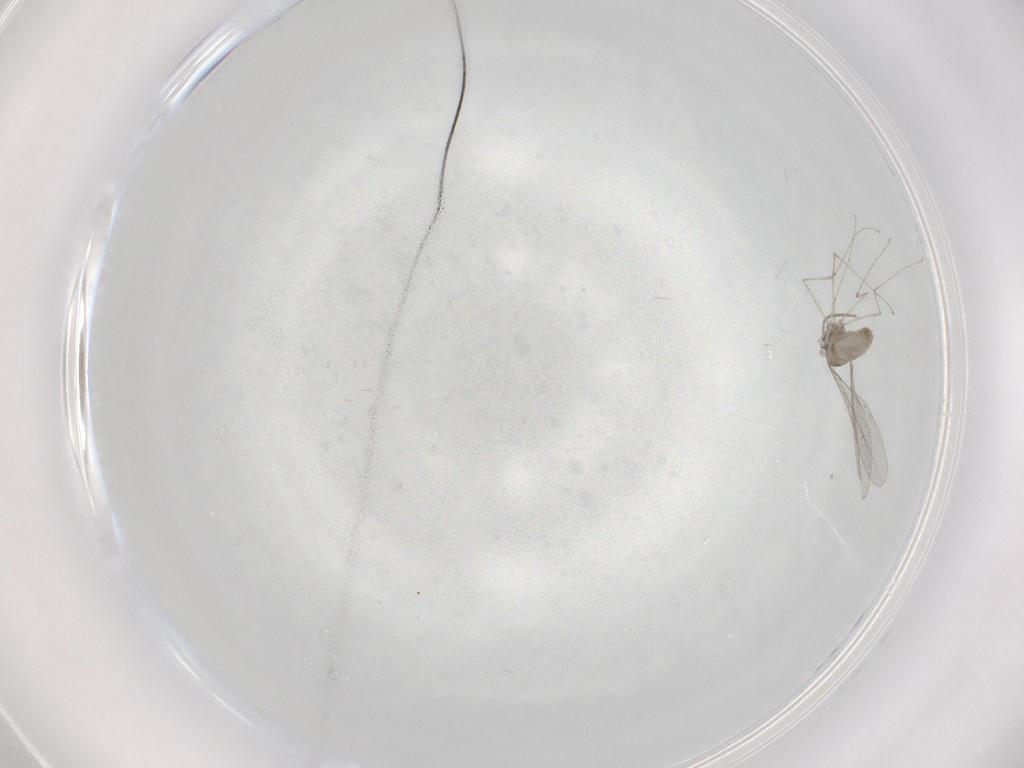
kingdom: Animalia
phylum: Arthropoda
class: Insecta
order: Diptera
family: Cecidomyiidae
